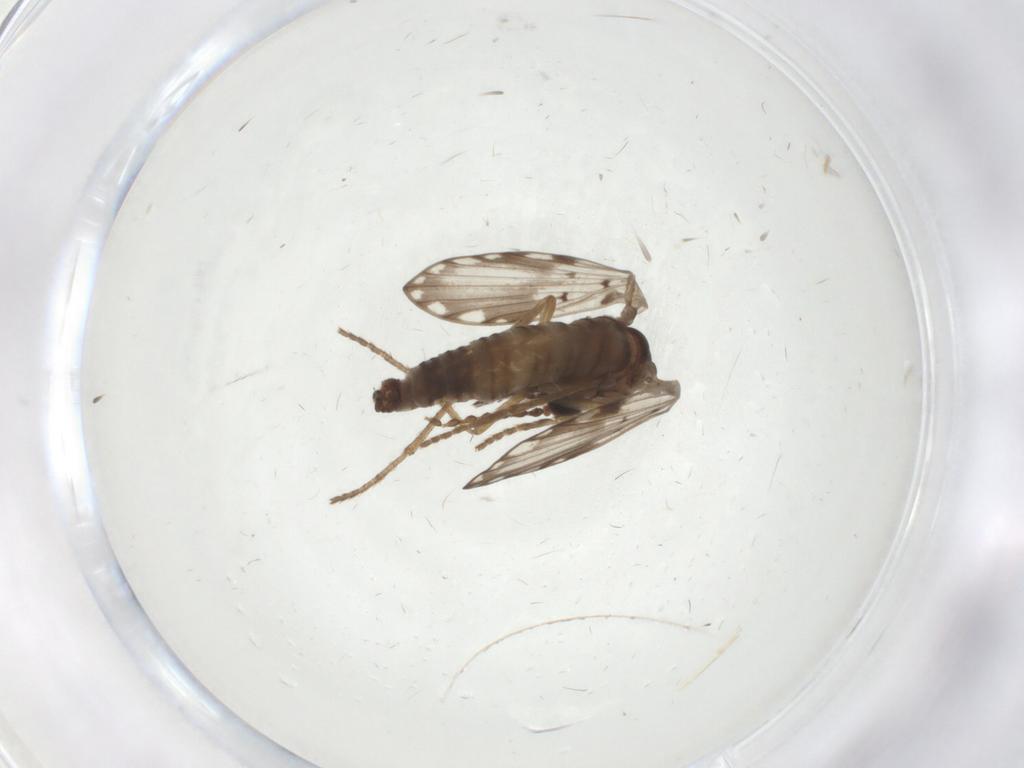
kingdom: Animalia
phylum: Arthropoda
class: Insecta
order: Diptera
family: Psychodidae
